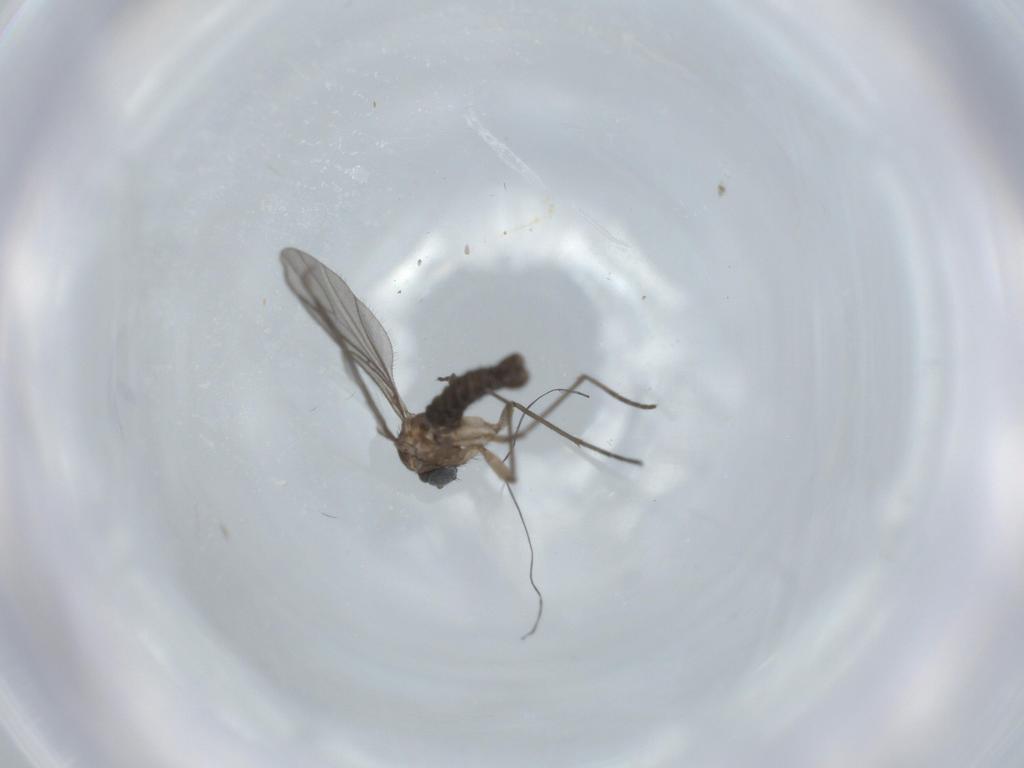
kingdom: Animalia
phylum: Arthropoda
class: Insecta
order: Diptera
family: Sciaridae
